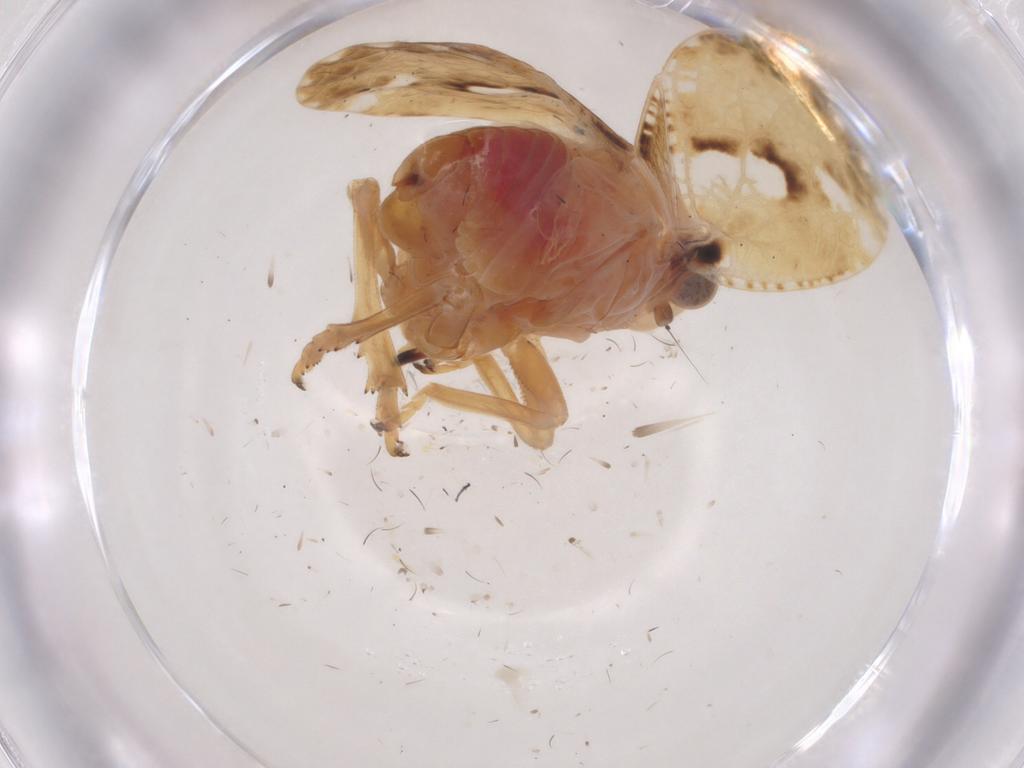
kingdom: Animalia
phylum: Arthropoda
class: Insecta
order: Hemiptera
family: Fulgoroidea_incertae_sedis
